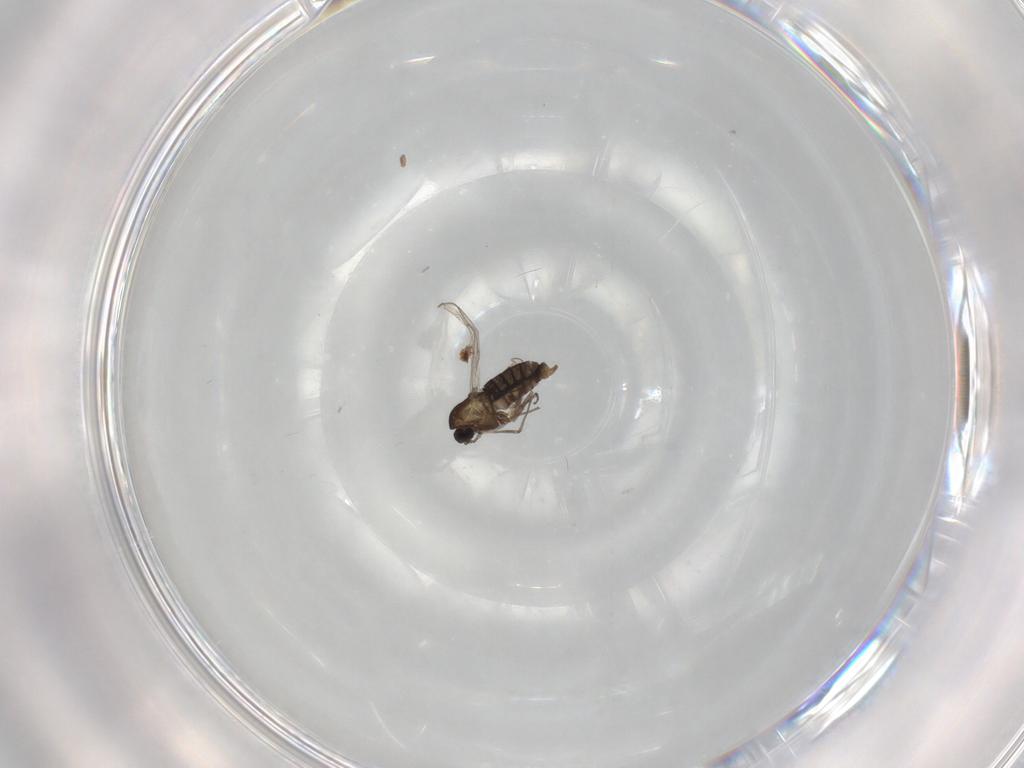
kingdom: Animalia
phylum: Arthropoda
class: Insecta
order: Diptera
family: Chironomidae
